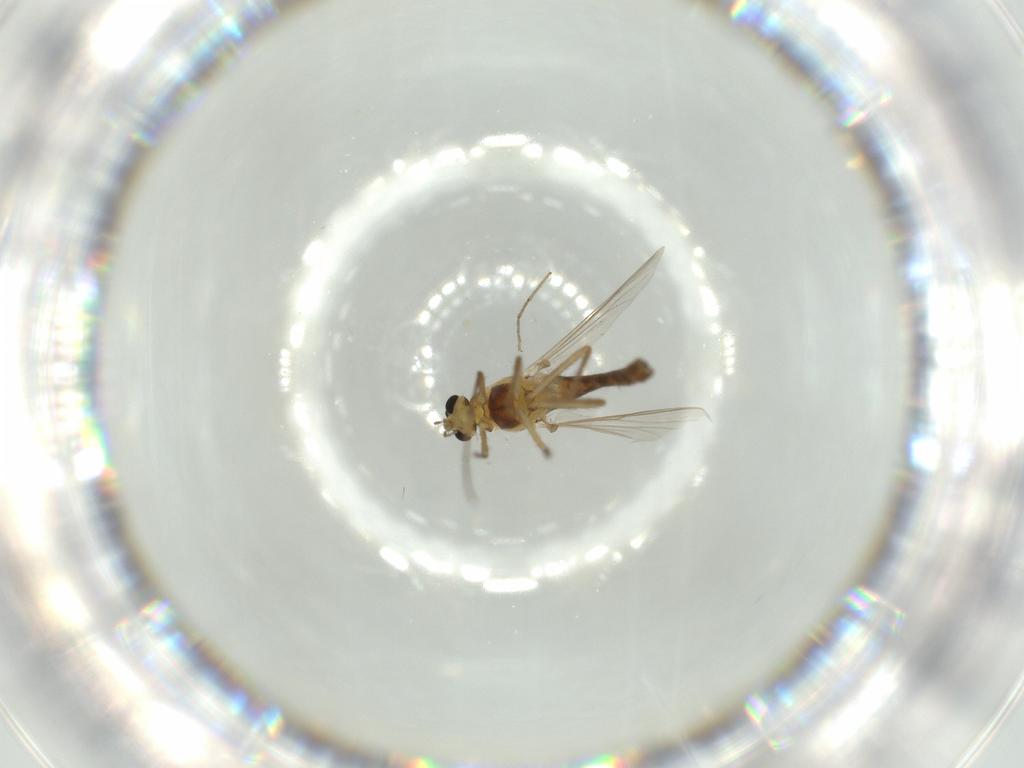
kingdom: Animalia
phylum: Arthropoda
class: Insecta
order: Diptera
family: Chironomidae
